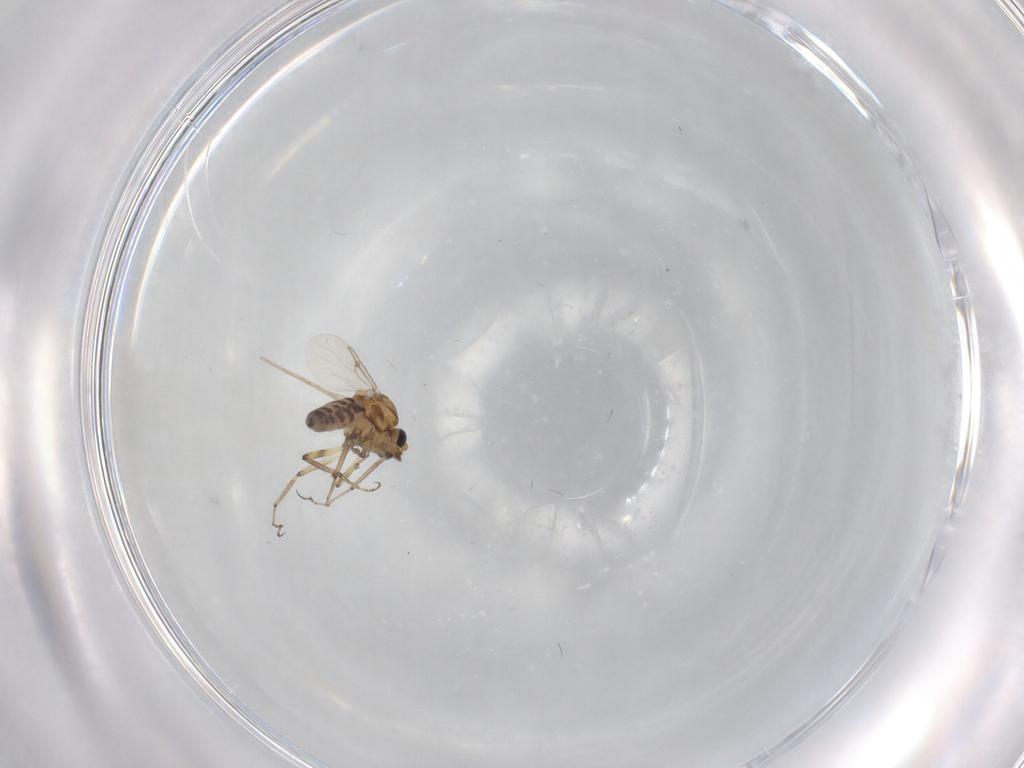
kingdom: Animalia
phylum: Arthropoda
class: Insecta
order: Diptera
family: Ceratopogonidae
